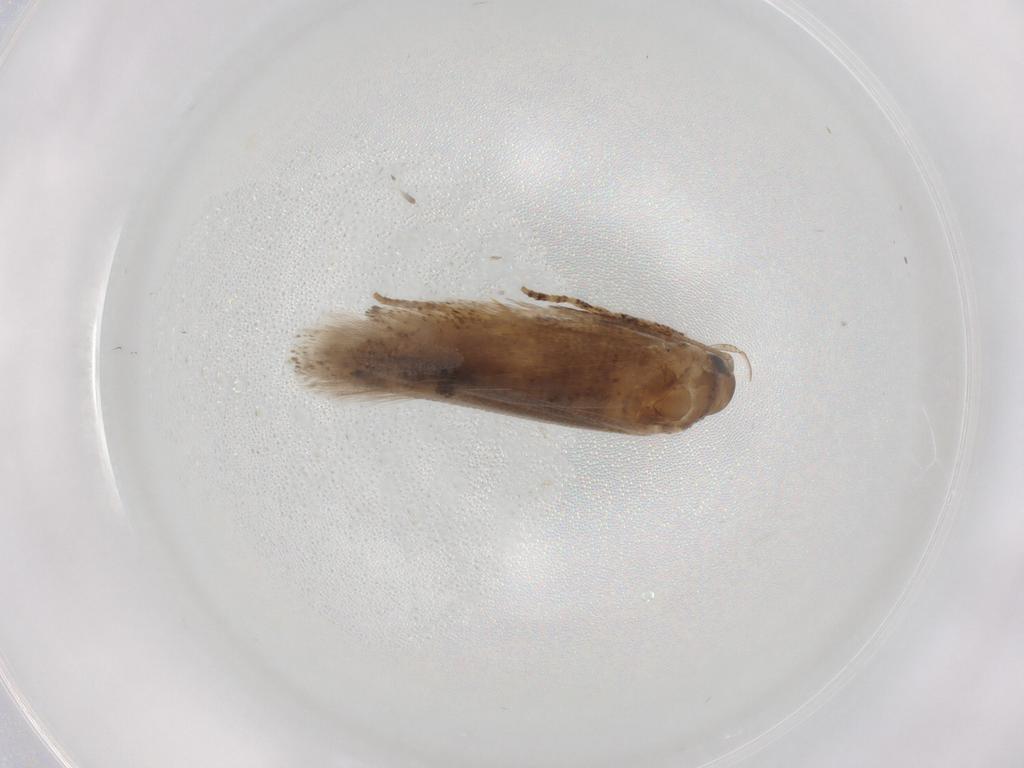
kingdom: Animalia
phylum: Arthropoda
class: Insecta
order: Lepidoptera
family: Gelechiidae
